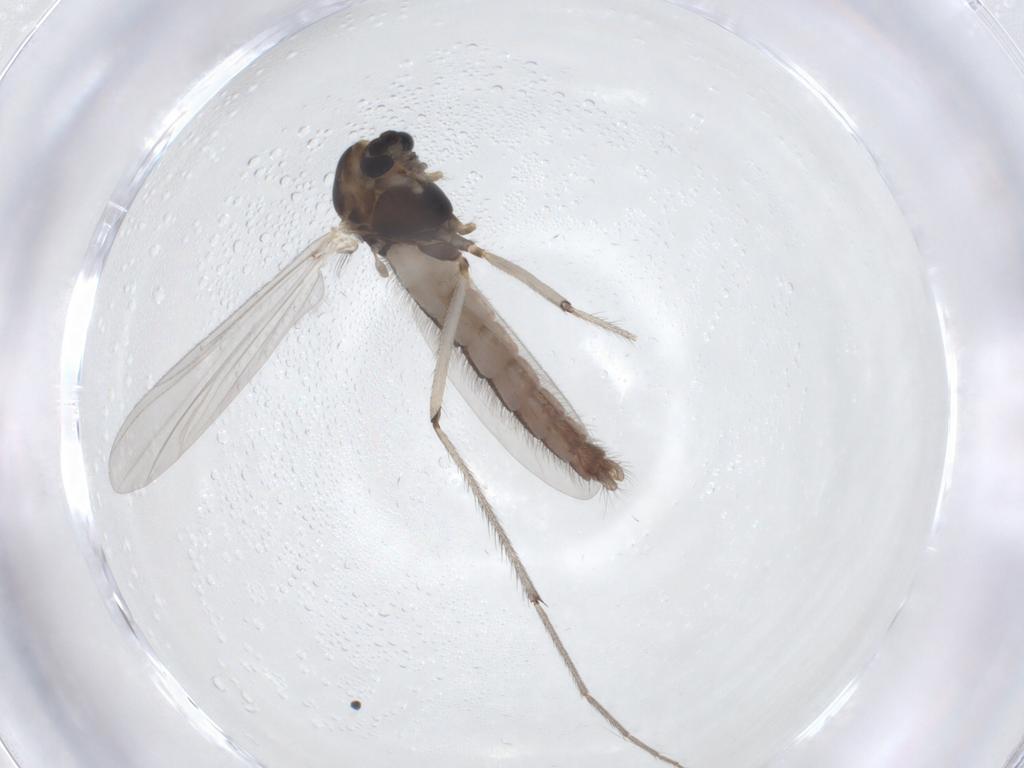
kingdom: Animalia
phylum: Arthropoda
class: Insecta
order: Diptera
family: Chironomidae
